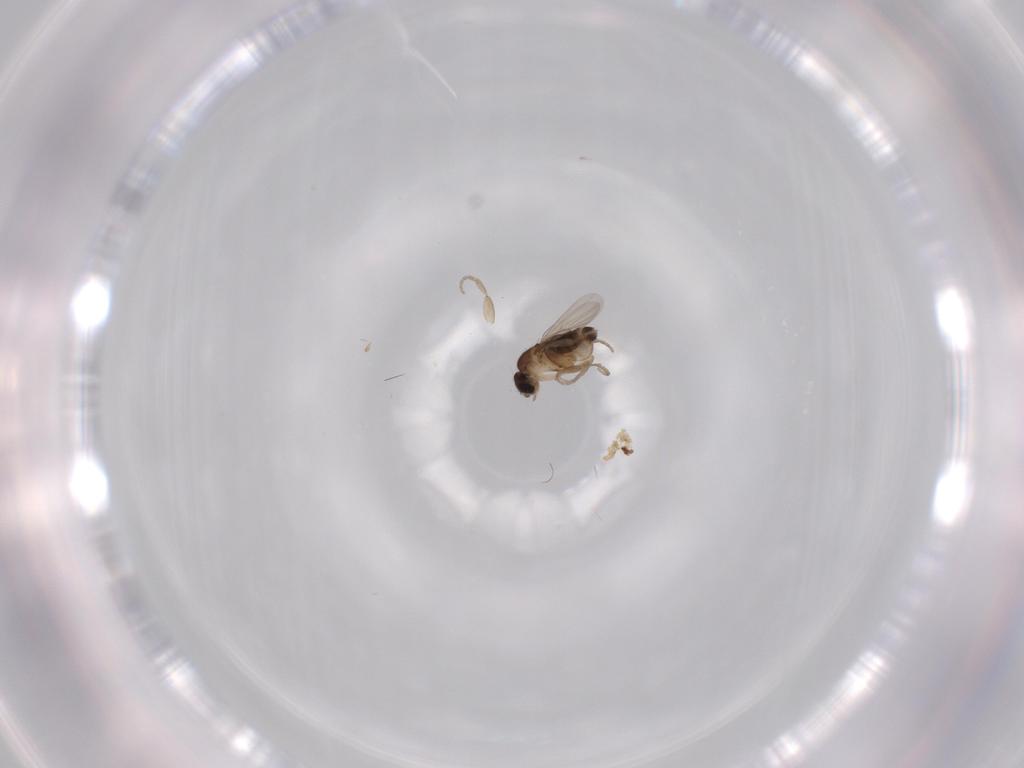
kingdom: Animalia
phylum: Arthropoda
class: Insecta
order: Diptera
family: Phoridae
